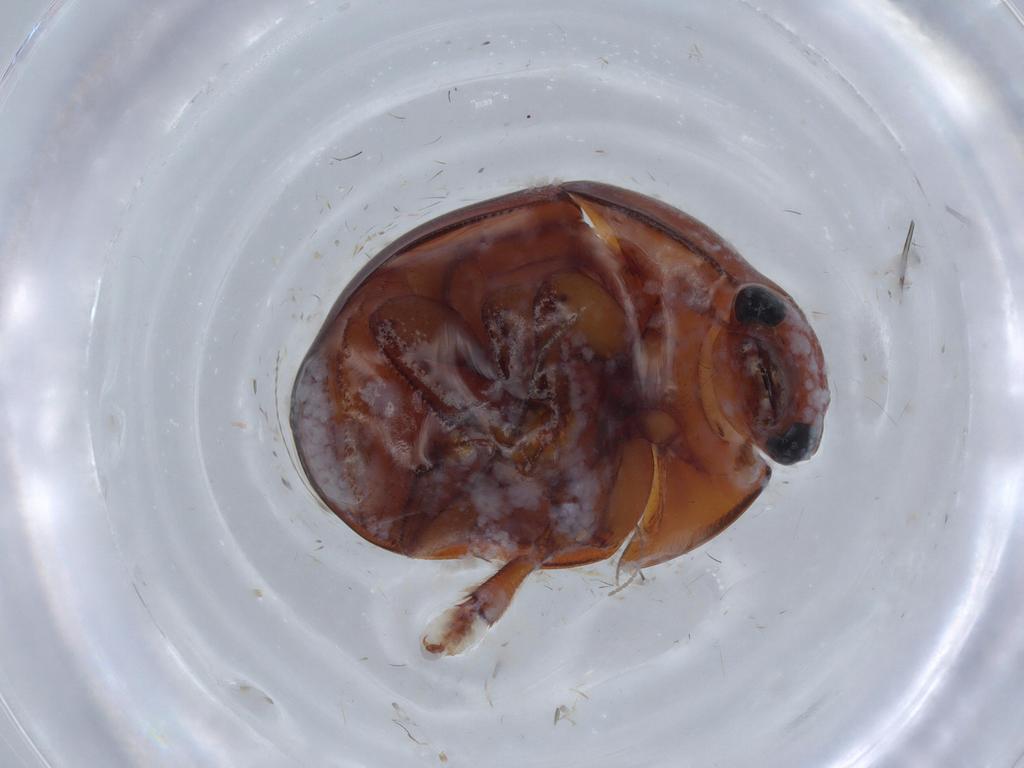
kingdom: Animalia
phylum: Arthropoda
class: Insecta
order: Coleoptera
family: Nitidulidae
